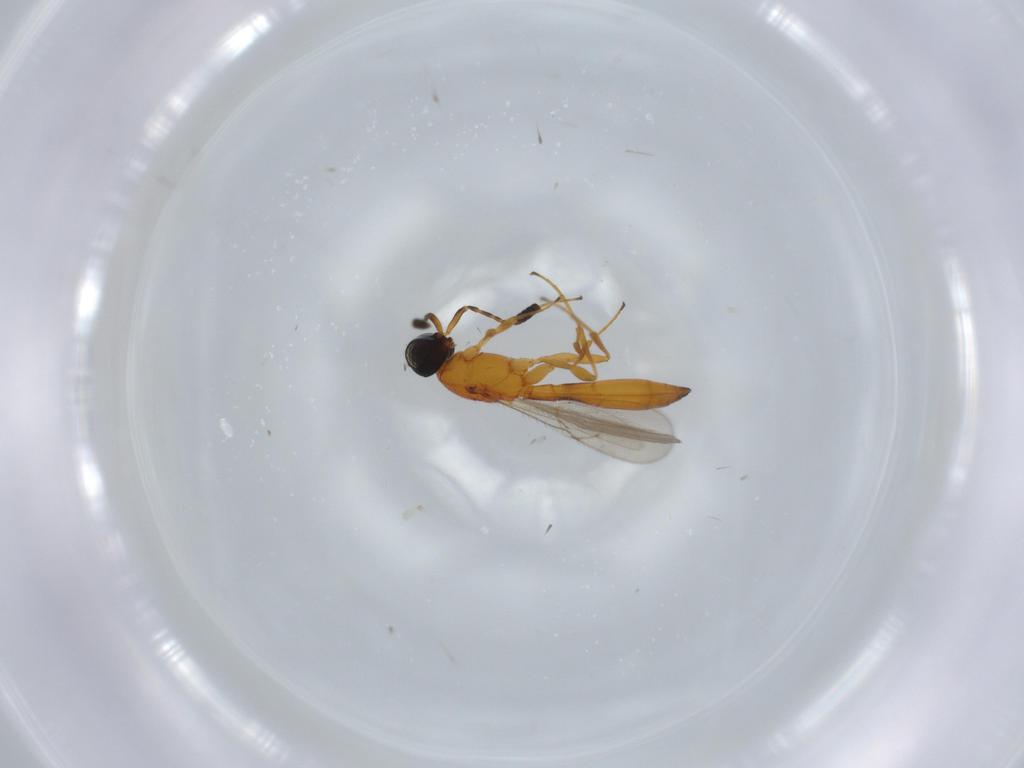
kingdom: Animalia
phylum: Arthropoda
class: Insecta
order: Hymenoptera
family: Scelionidae
